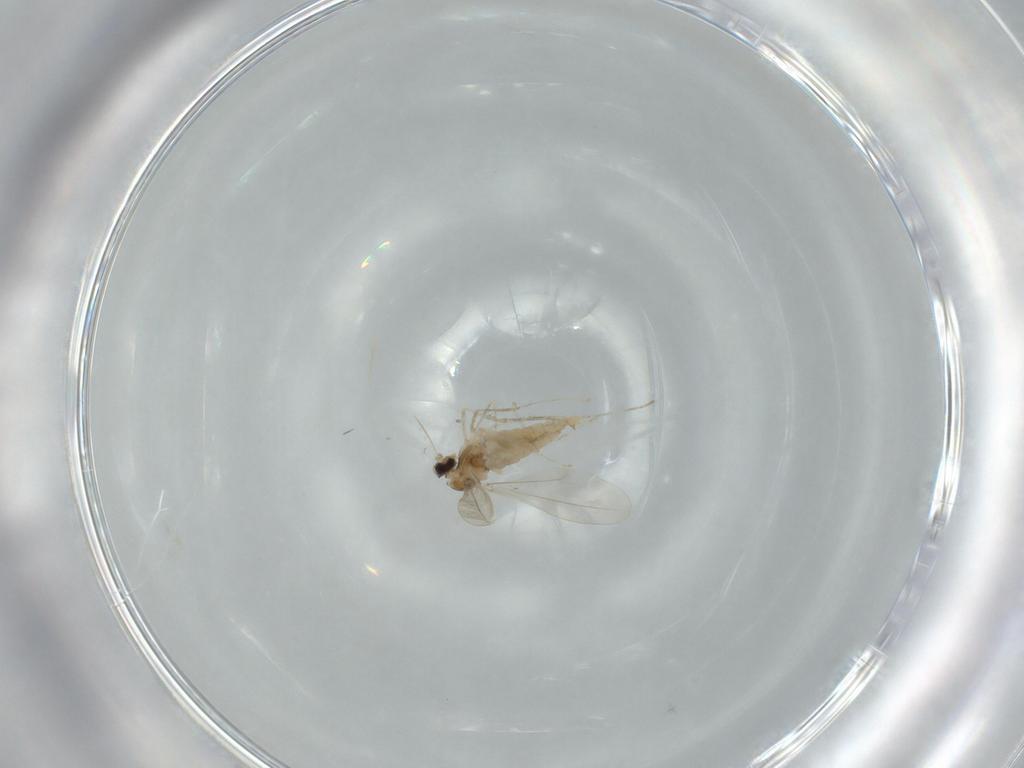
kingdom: Animalia
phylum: Arthropoda
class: Insecta
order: Diptera
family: Cecidomyiidae
